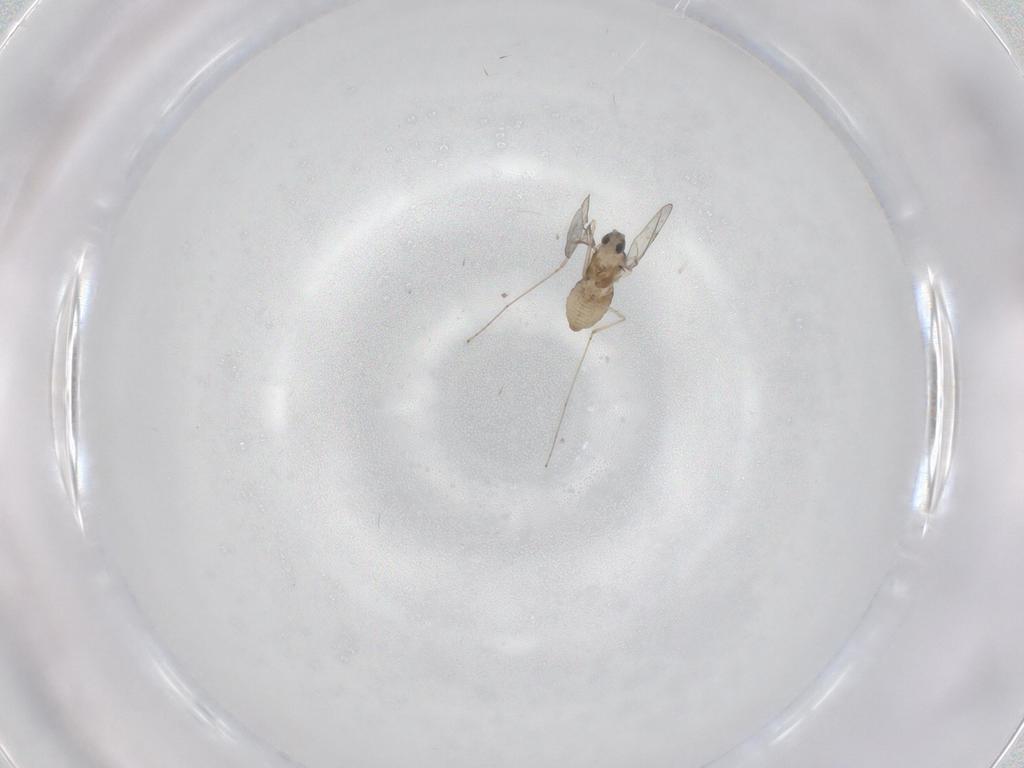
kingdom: Animalia
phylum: Arthropoda
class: Insecta
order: Diptera
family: Cecidomyiidae
